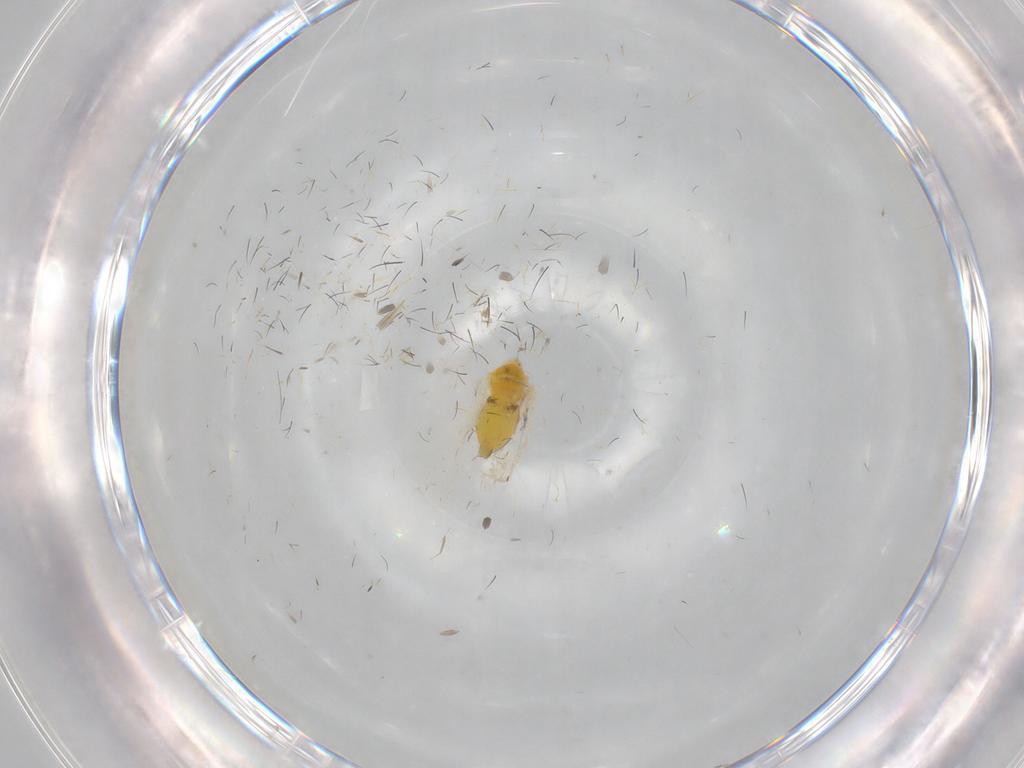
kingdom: Animalia
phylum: Arthropoda
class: Insecta
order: Hemiptera
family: Aleyrodidae
